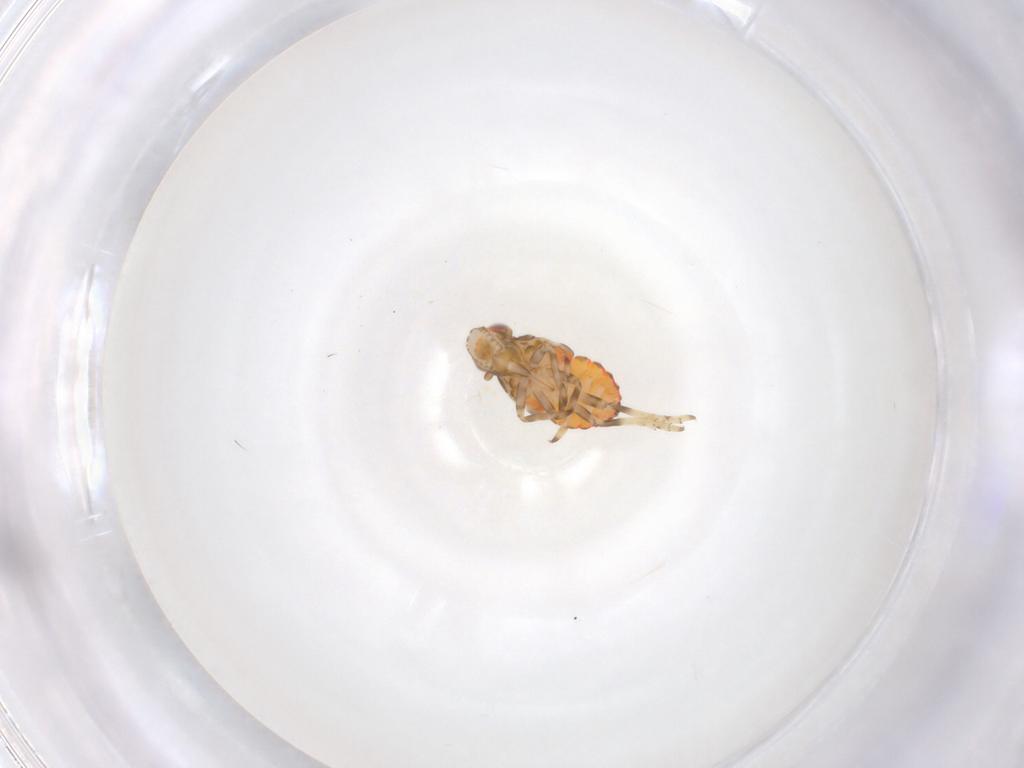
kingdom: Animalia
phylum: Arthropoda
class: Insecta
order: Hemiptera
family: Tropiduchidae
